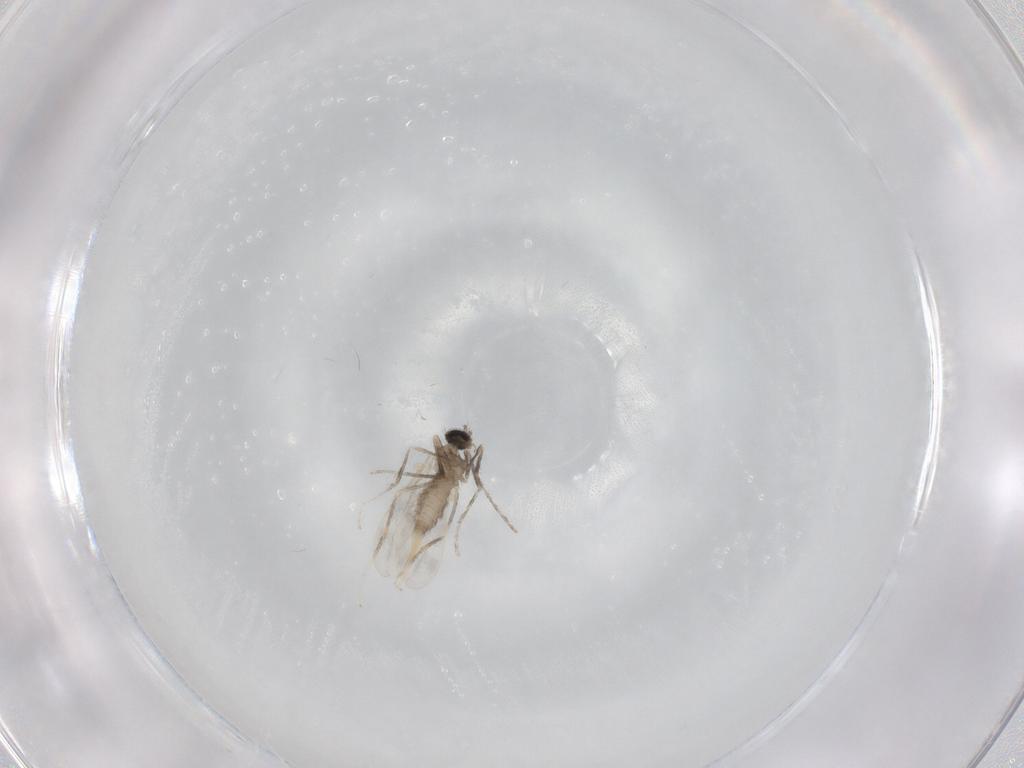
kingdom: Animalia
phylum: Arthropoda
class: Insecta
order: Diptera
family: Cecidomyiidae
